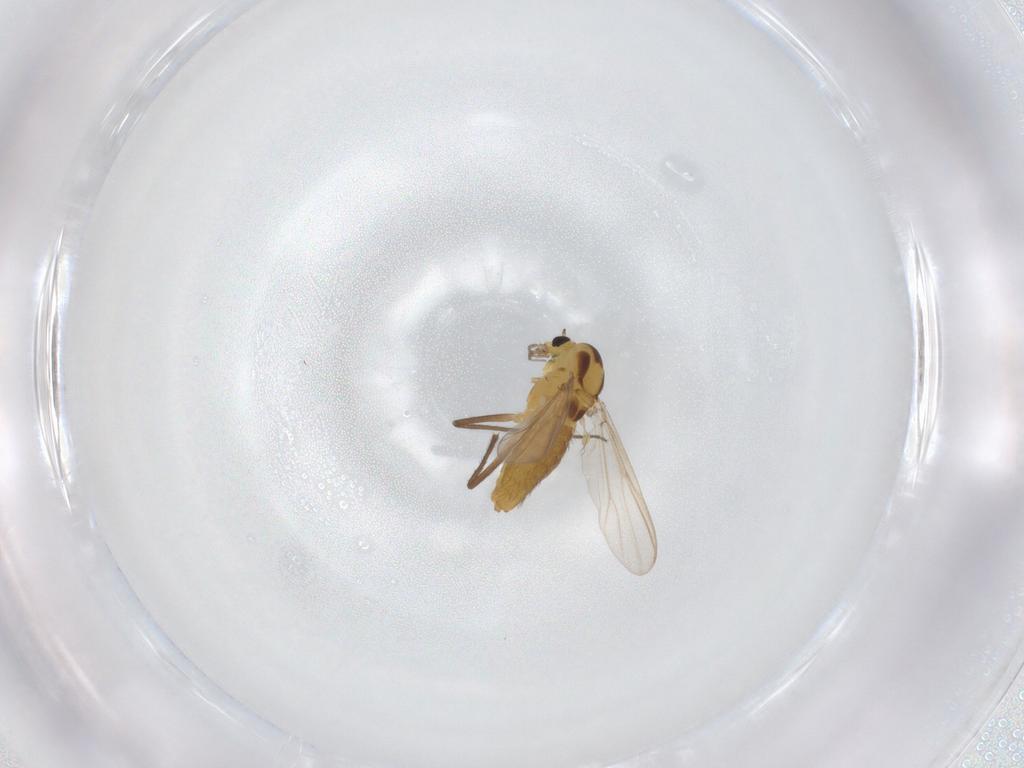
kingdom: Animalia
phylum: Arthropoda
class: Insecta
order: Diptera
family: Chironomidae
